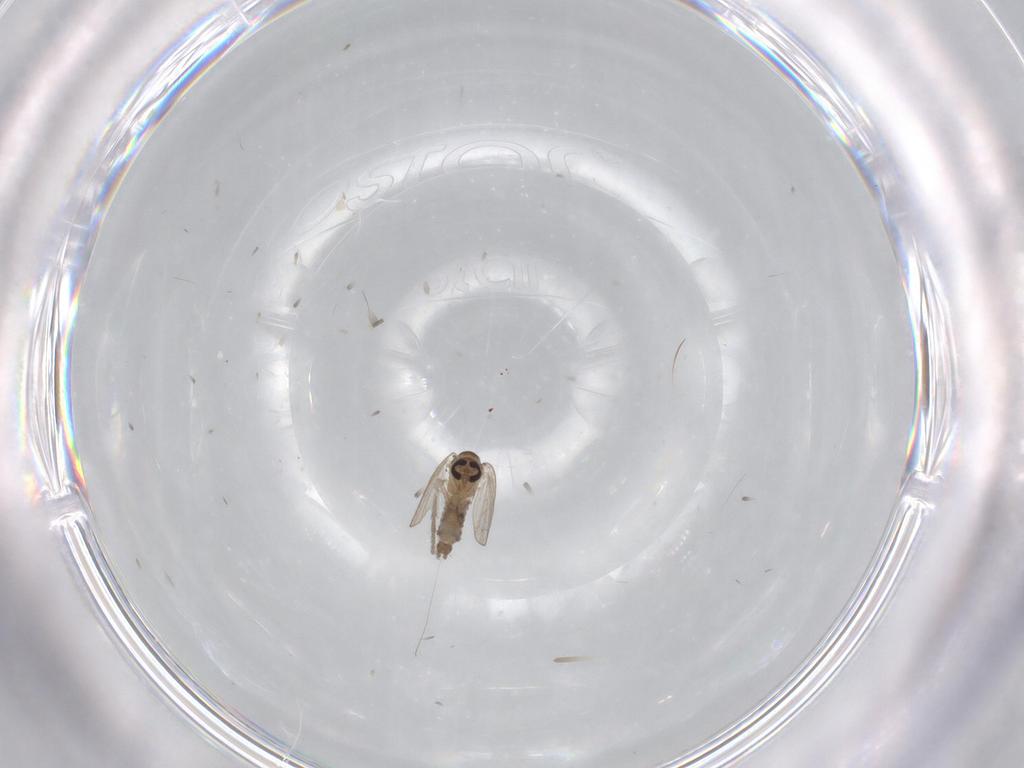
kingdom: Animalia
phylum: Arthropoda
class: Insecta
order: Diptera
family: Psychodidae
